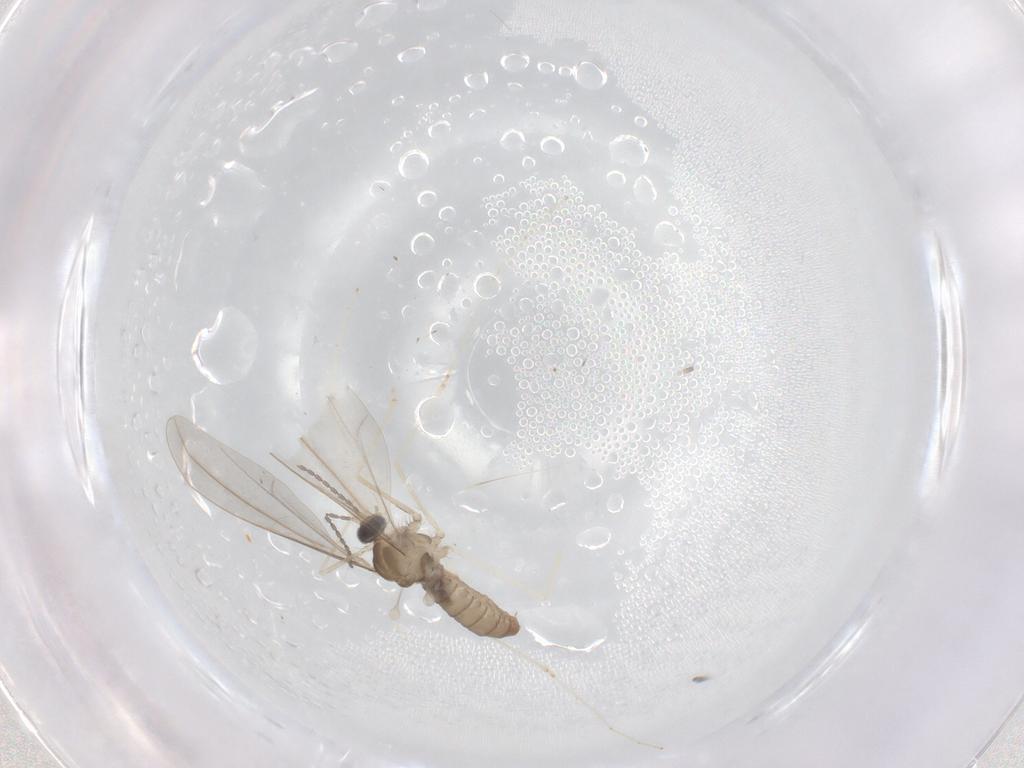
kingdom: Animalia
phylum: Arthropoda
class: Insecta
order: Diptera
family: Cecidomyiidae
